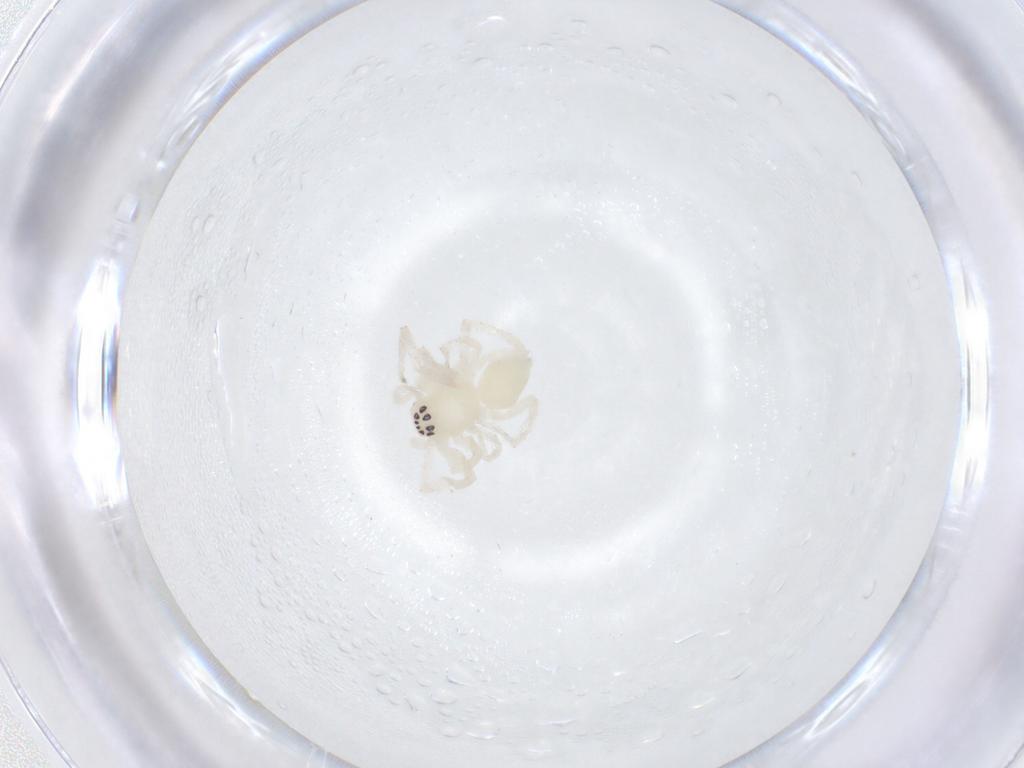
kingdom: Animalia
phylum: Arthropoda
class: Arachnida
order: Araneae
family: Anyphaenidae
